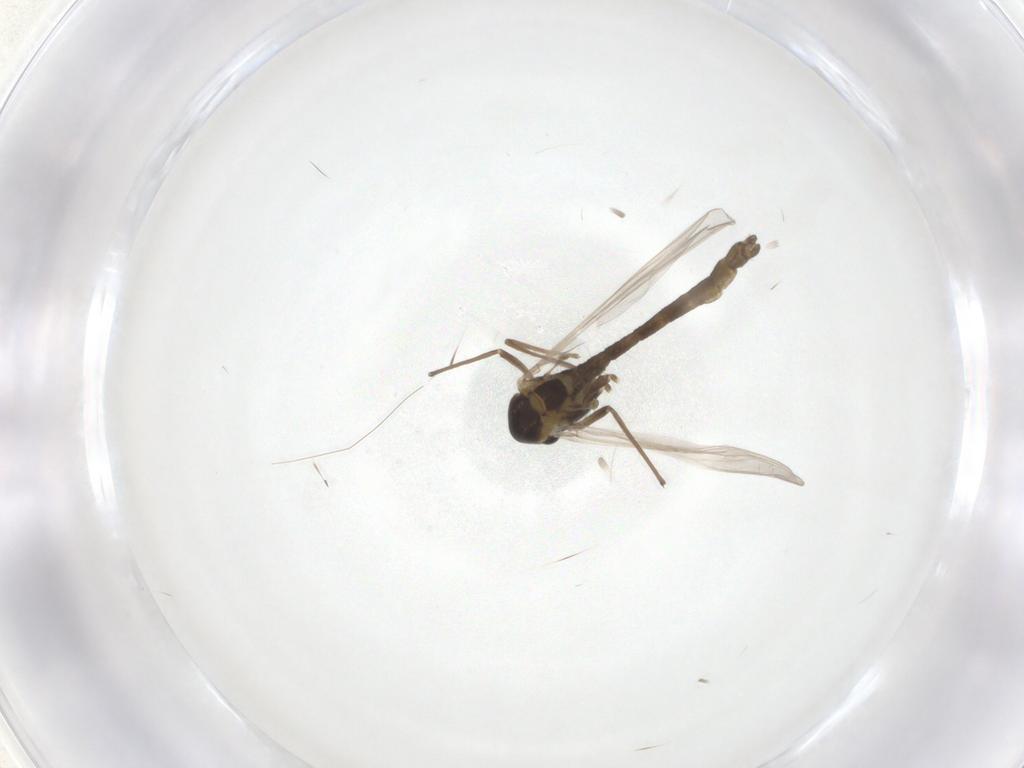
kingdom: Animalia
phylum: Arthropoda
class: Insecta
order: Diptera
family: Chironomidae
